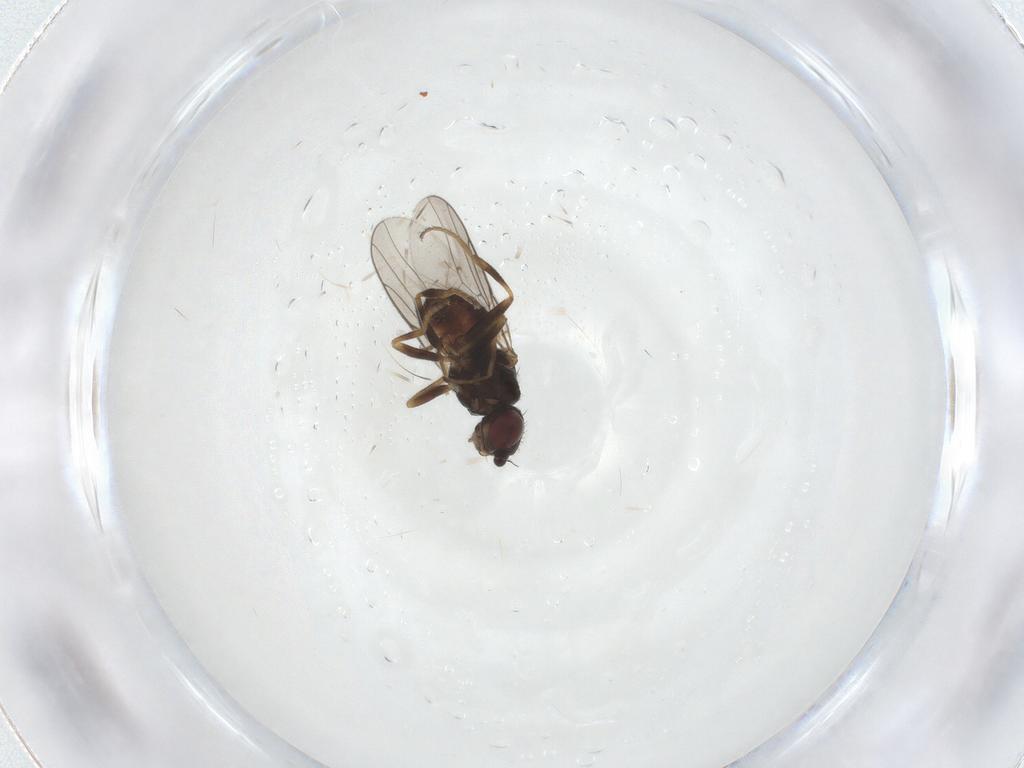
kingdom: Animalia
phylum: Arthropoda
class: Insecta
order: Diptera
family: Chloropidae
